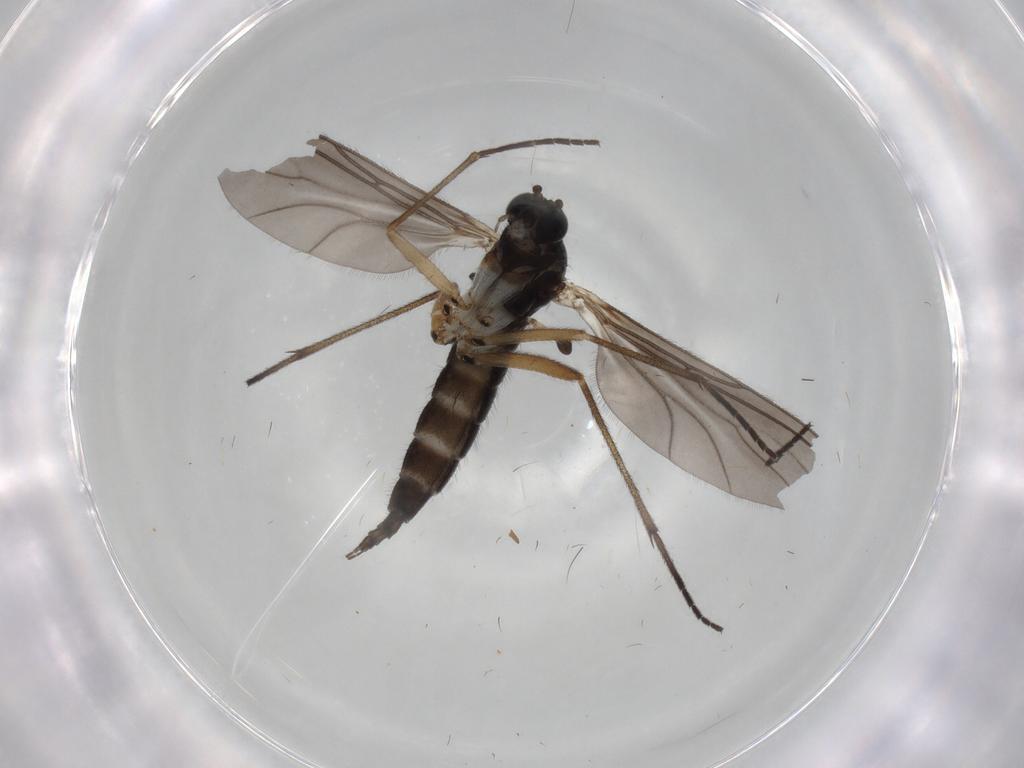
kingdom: Animalia
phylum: Arthropoda
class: Insecta
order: Diptera
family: Sciaridae
